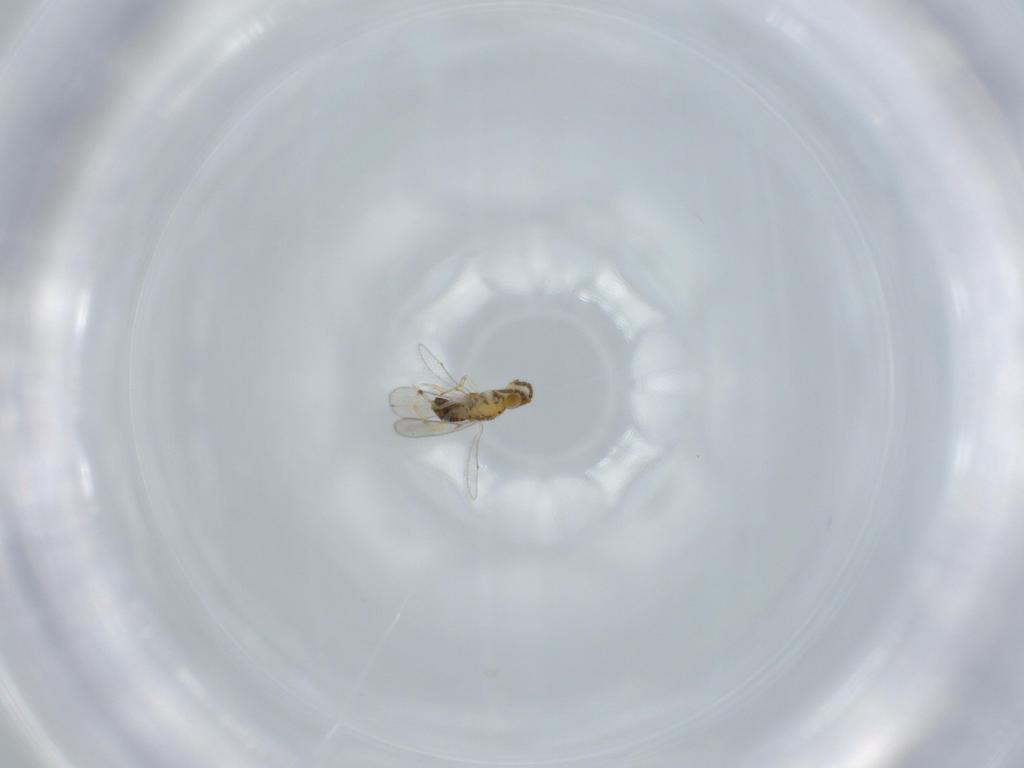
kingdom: Animalia
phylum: Arthropoda
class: Insecta
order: Hymenoptera
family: Aphelinidae
